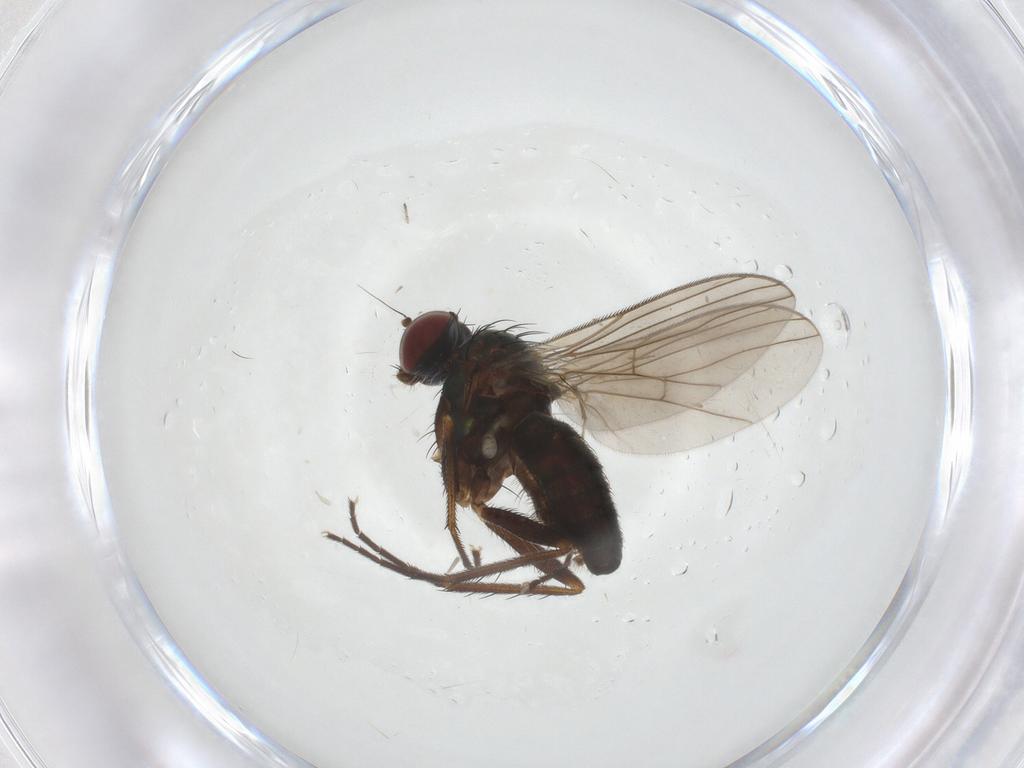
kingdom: Animalia
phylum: Arthropoda
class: Insecta
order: Diptera
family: Dolichopodidae
